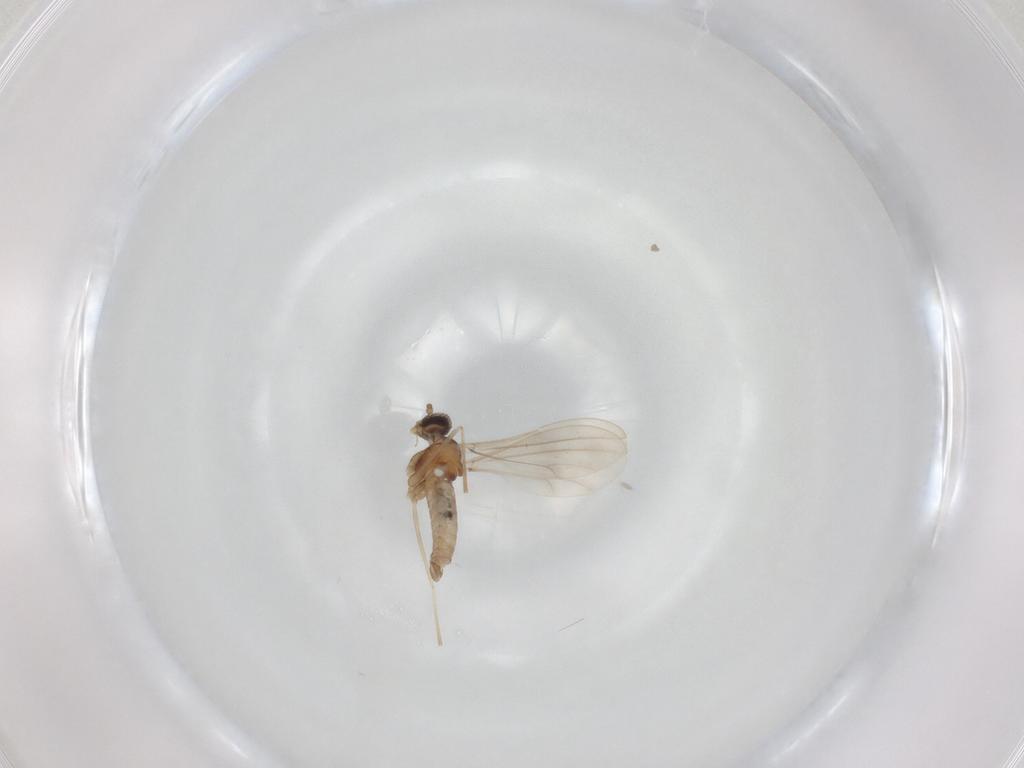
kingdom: Animalia
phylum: Arthropoda
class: Insecta
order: Diptera
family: Cecidomyiidae
